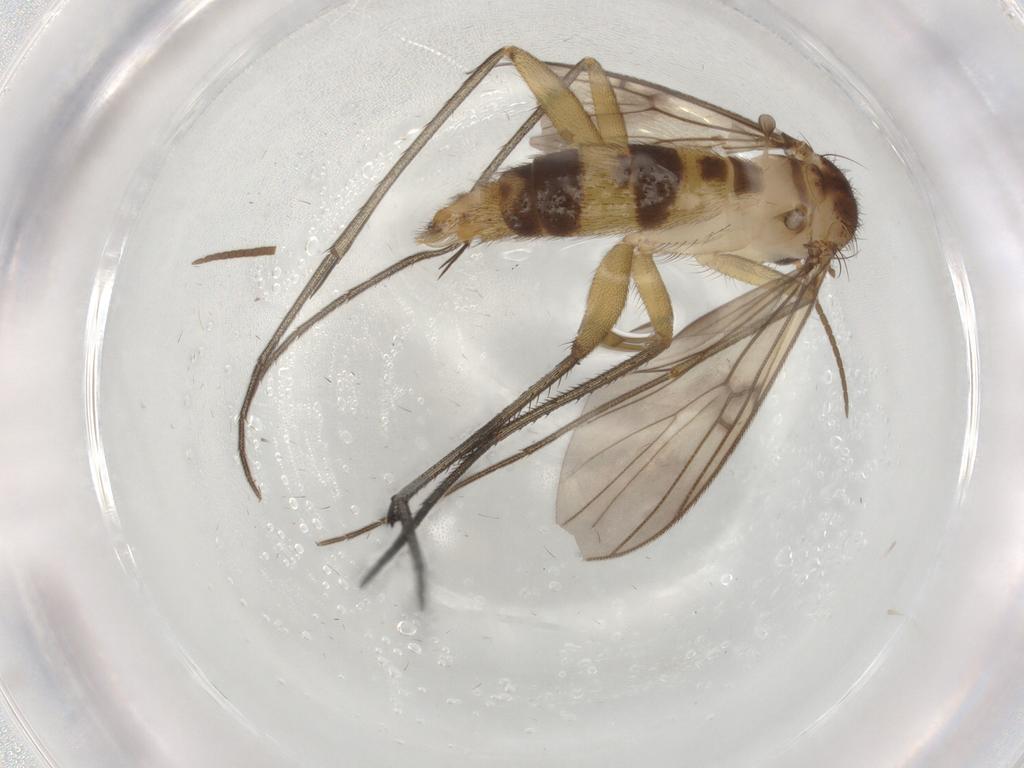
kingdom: Animalia
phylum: Arthropoda
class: Insecta
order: Diptera
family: Mycetophilidae
